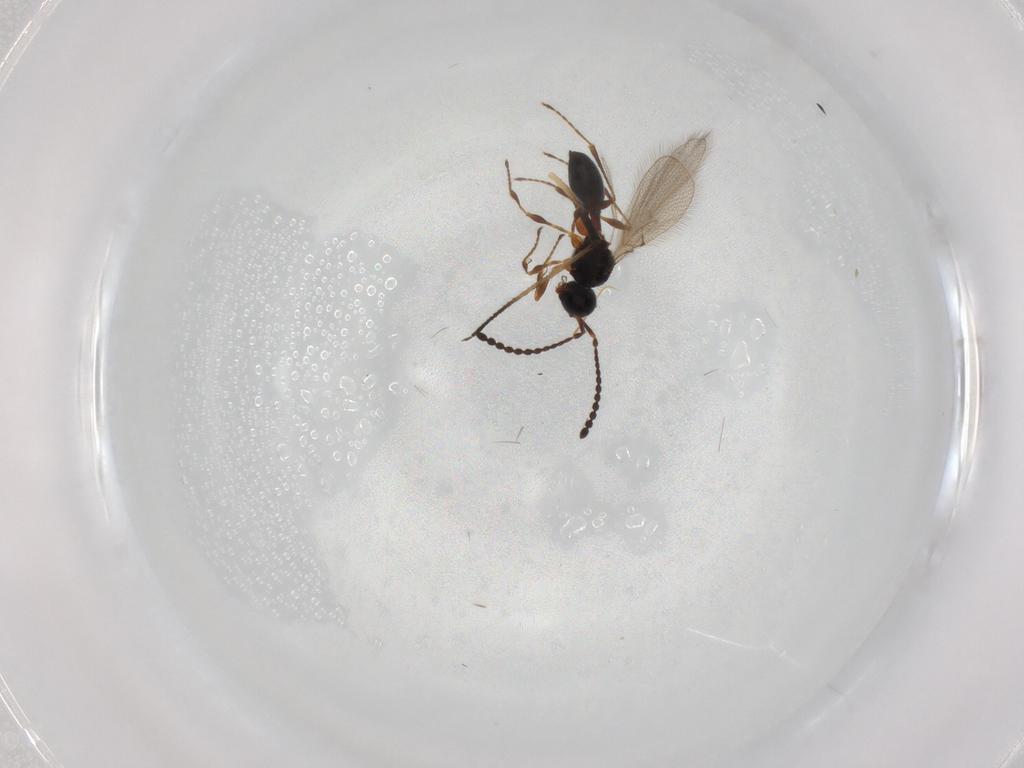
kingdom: Animalia
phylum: Arthropoda
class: Insecta
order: Hymenoptera
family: Diapriidae
